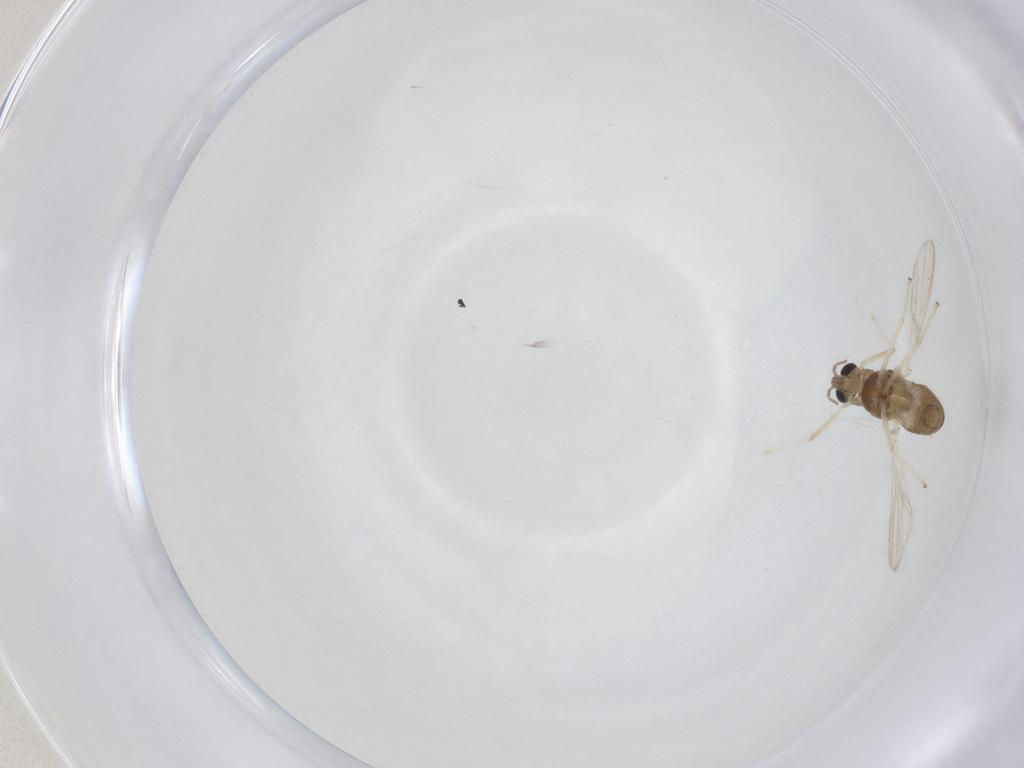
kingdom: Animalia
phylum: Arthropoda
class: Insecta
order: Diptera
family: Chironomidae
